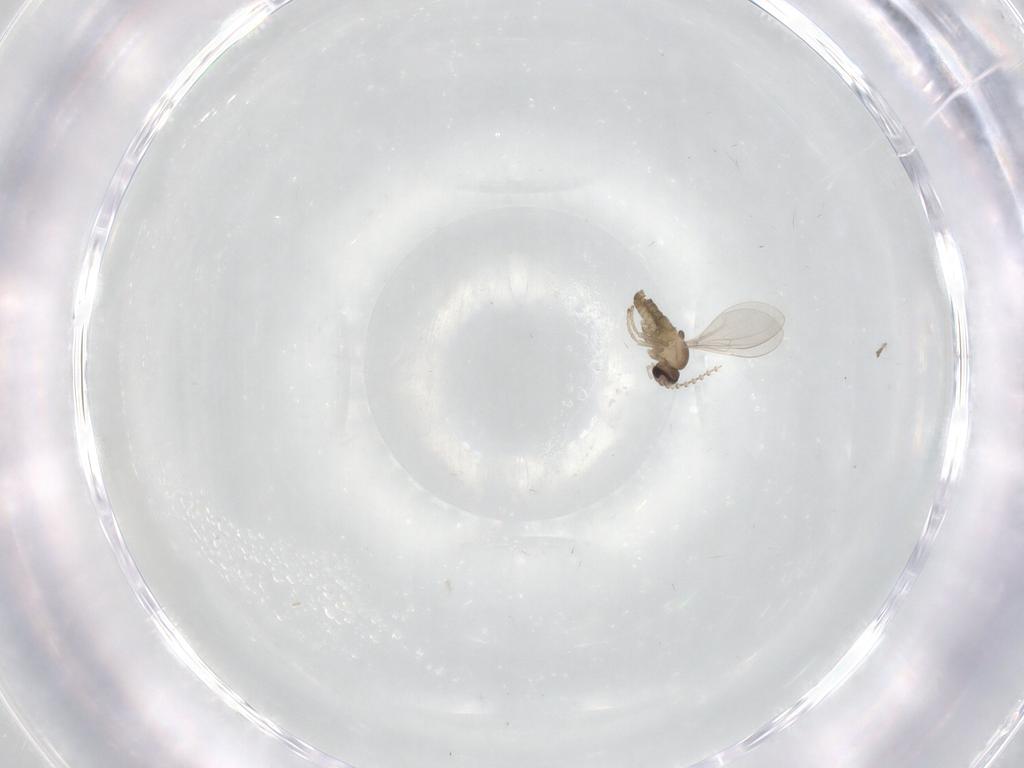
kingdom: Animalia
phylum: Arthropoda
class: Insecta
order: Diptera
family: Cecidomyiidae
